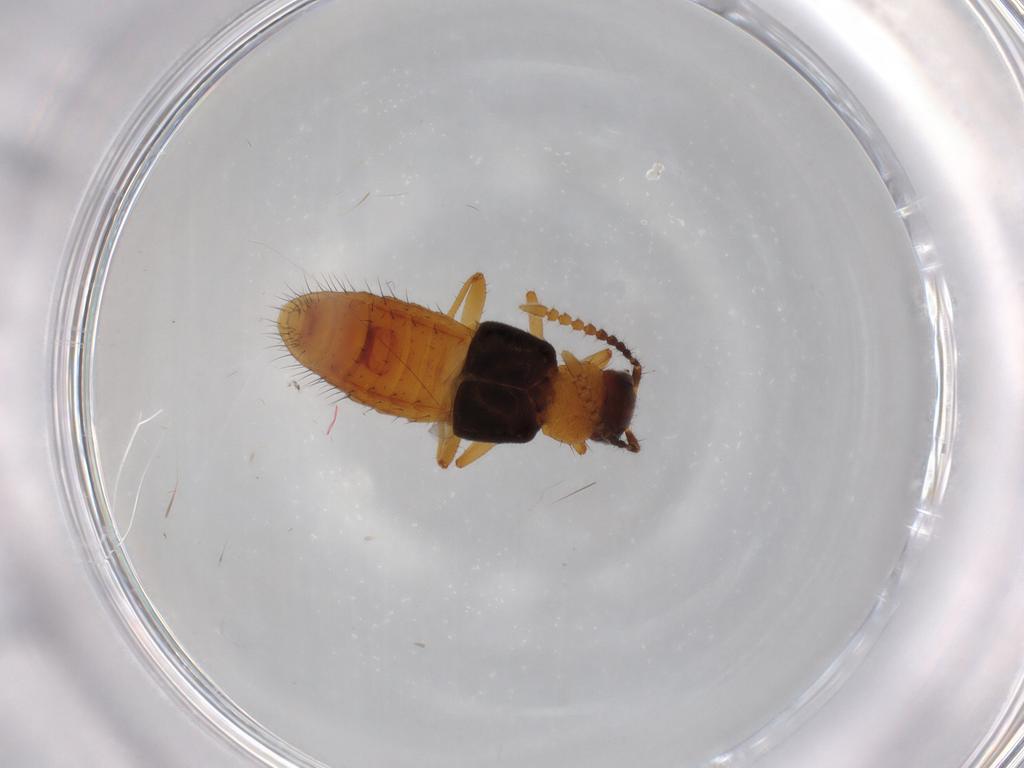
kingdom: Animalia
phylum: Arthropoda
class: Insecta
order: Coleoptera
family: Staphylinidae
